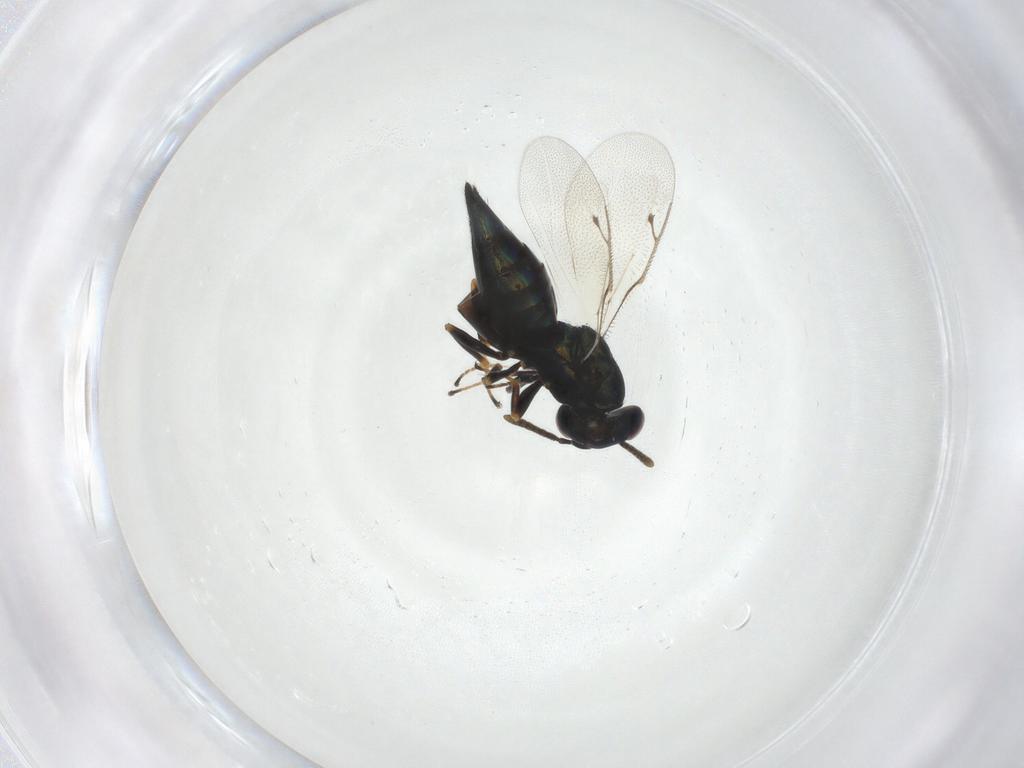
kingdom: Animalia
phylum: Arthropoda
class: Insecta
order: Hymenoptera
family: Pteromalidae
